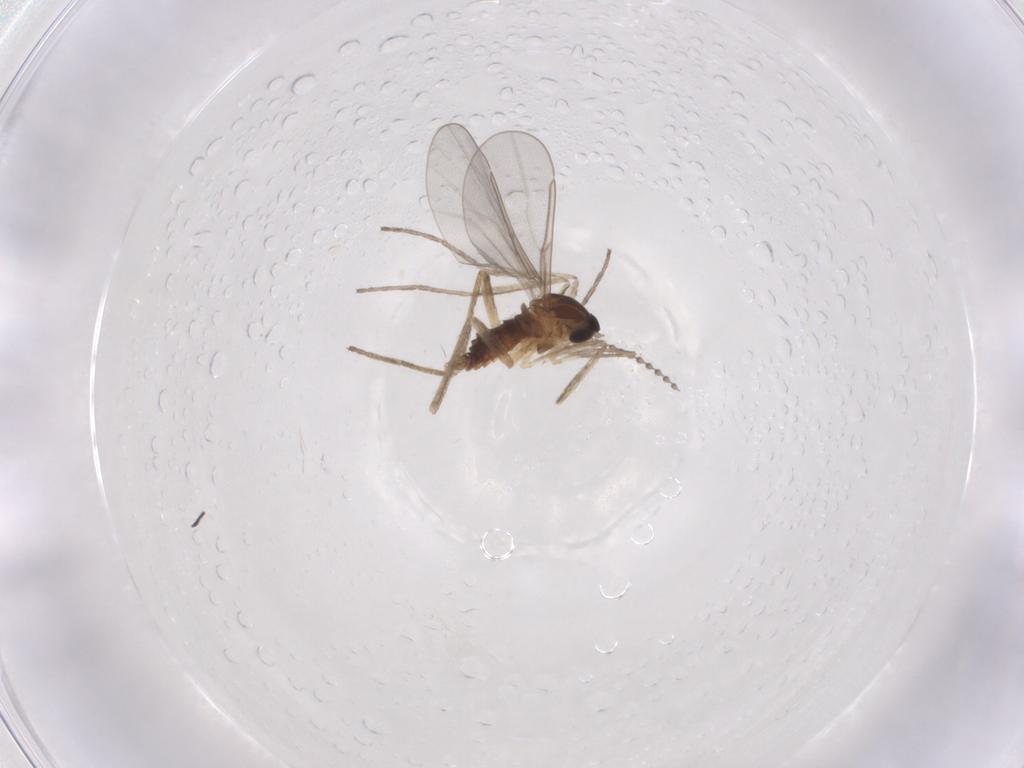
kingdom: Animalia
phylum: Arthropoda
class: Insecta
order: Diptera
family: Cecidomyiidae
